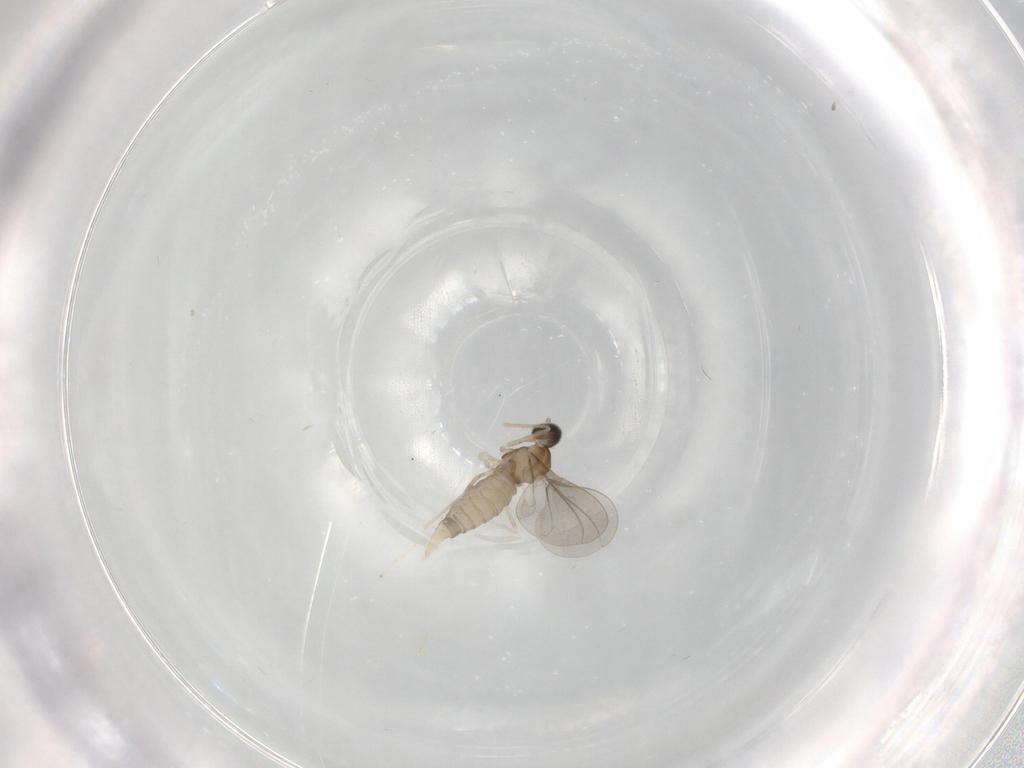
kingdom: Animalia
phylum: Arthropoda
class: Insecta
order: Diptera
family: Cecidomyiidae
